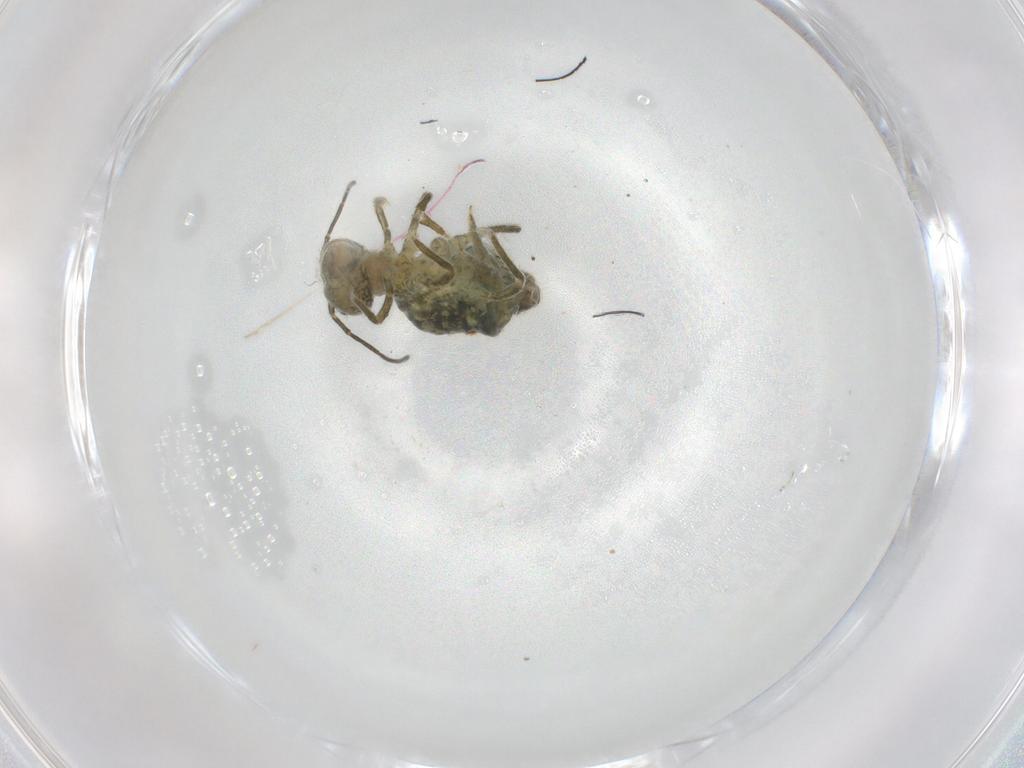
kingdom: Animalia
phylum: Arthropoda
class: Collembola
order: Symphypleona
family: Sminthuridae
